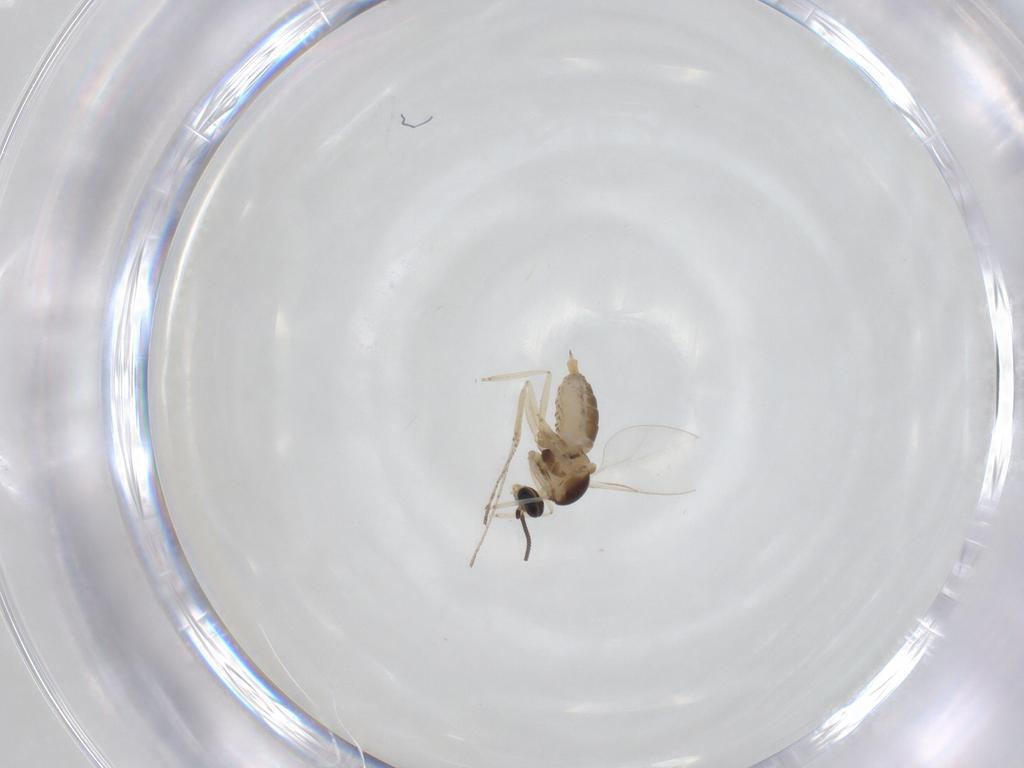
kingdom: Animalia
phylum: Arthropoda
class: Insecta
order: Diptera
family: Cecidomyiidae
